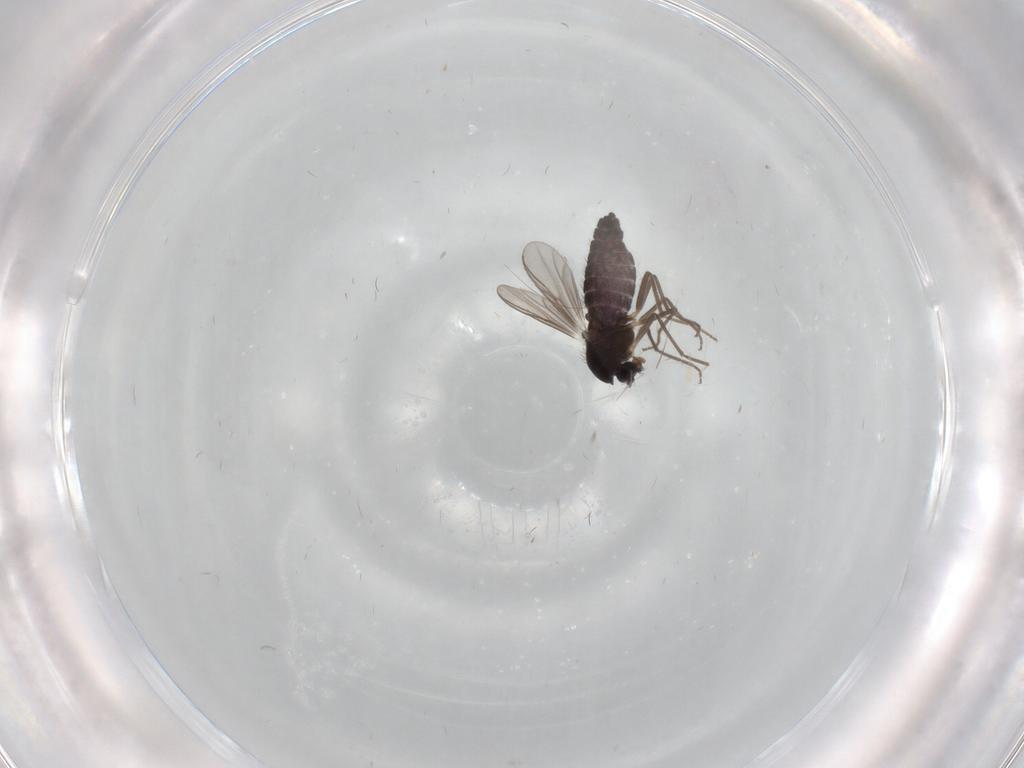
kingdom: Animalia
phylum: Arthropoda
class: Insecta
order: Diptera
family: Chironomidae
